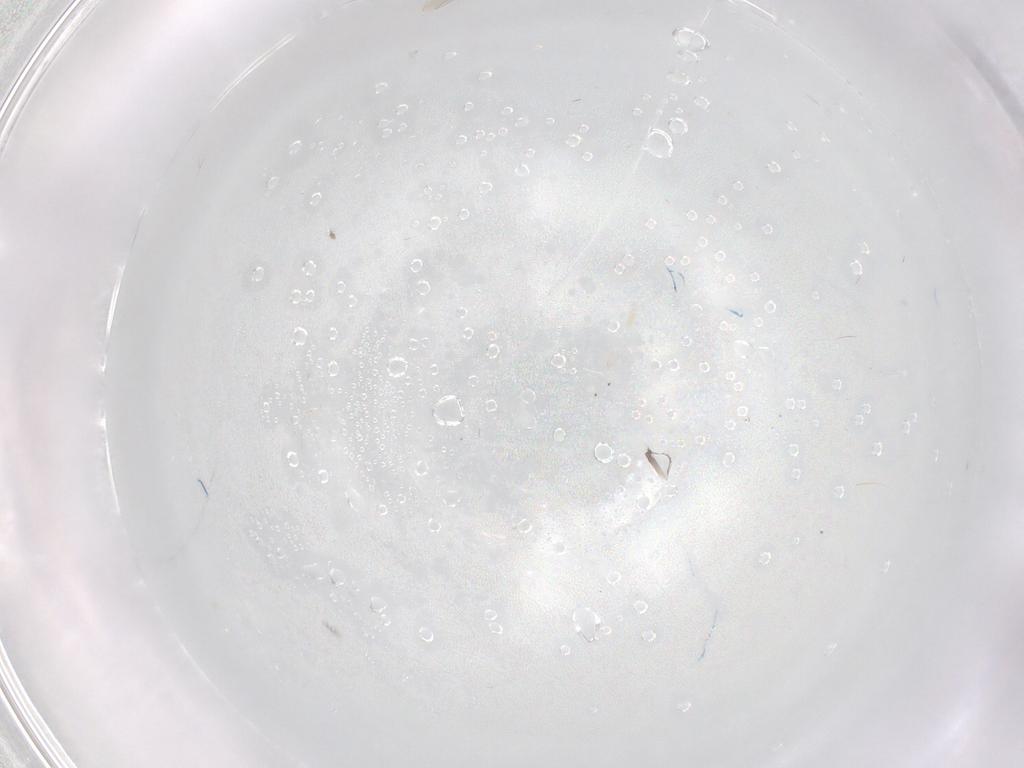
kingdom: Animalia
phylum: Arthropoda
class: Insecta
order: Diptera
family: Cecidomyiidae
